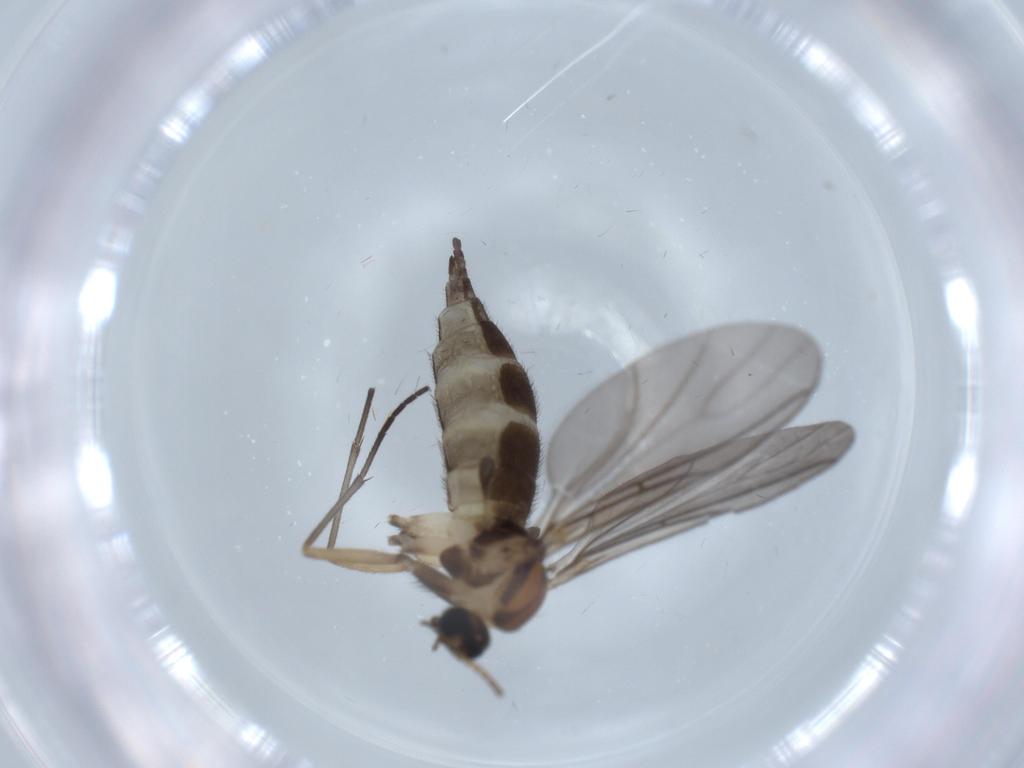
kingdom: Animalia
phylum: Arthropoda
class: Insecta
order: Diptera
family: Sciaridae
